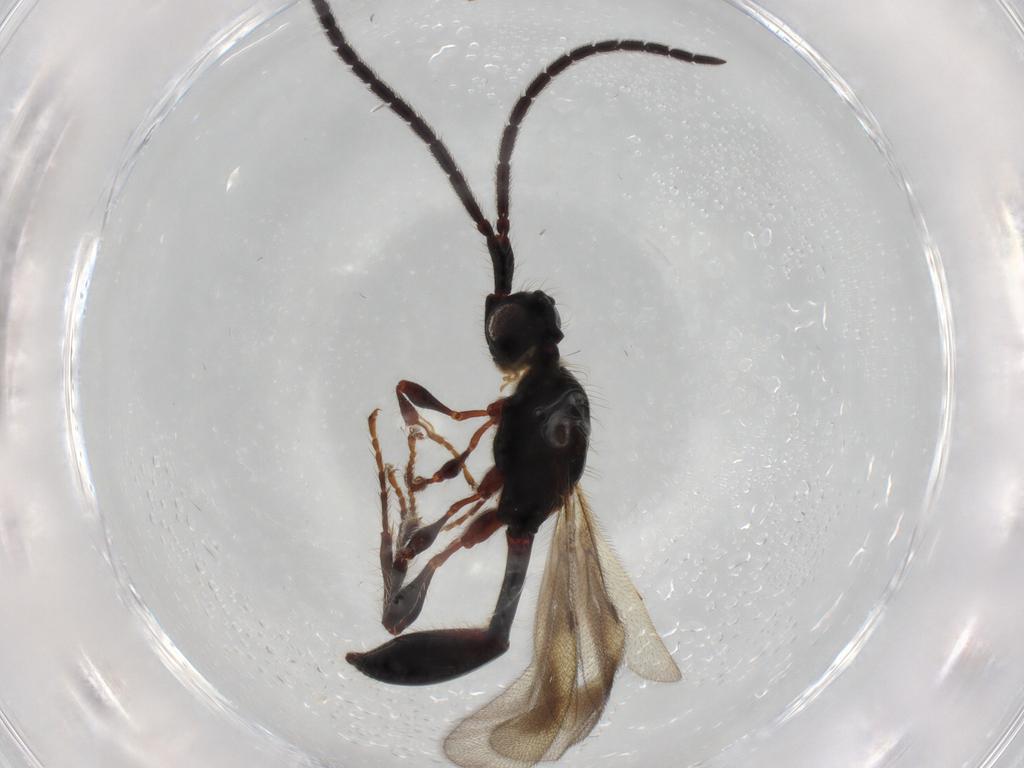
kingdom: Animalia
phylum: Arthropoda
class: Insecta
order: Hymenoptera
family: Diapriidae
